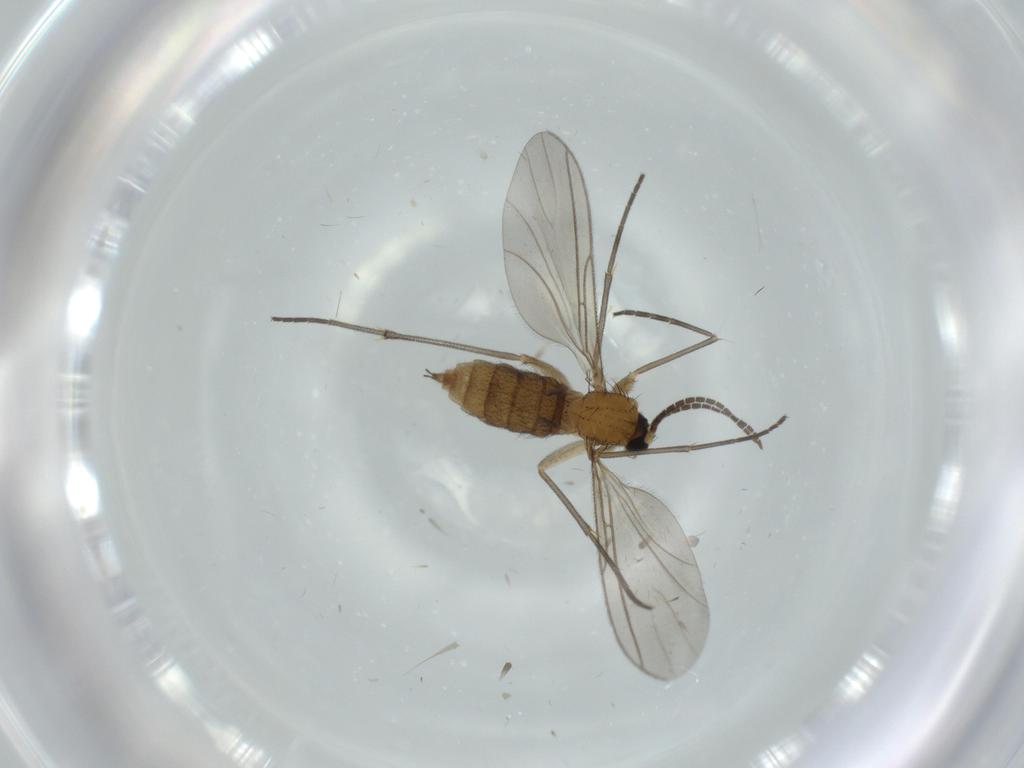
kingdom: Animalia
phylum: Arthropoda
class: Insecta
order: Diptera
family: Sciaridae
